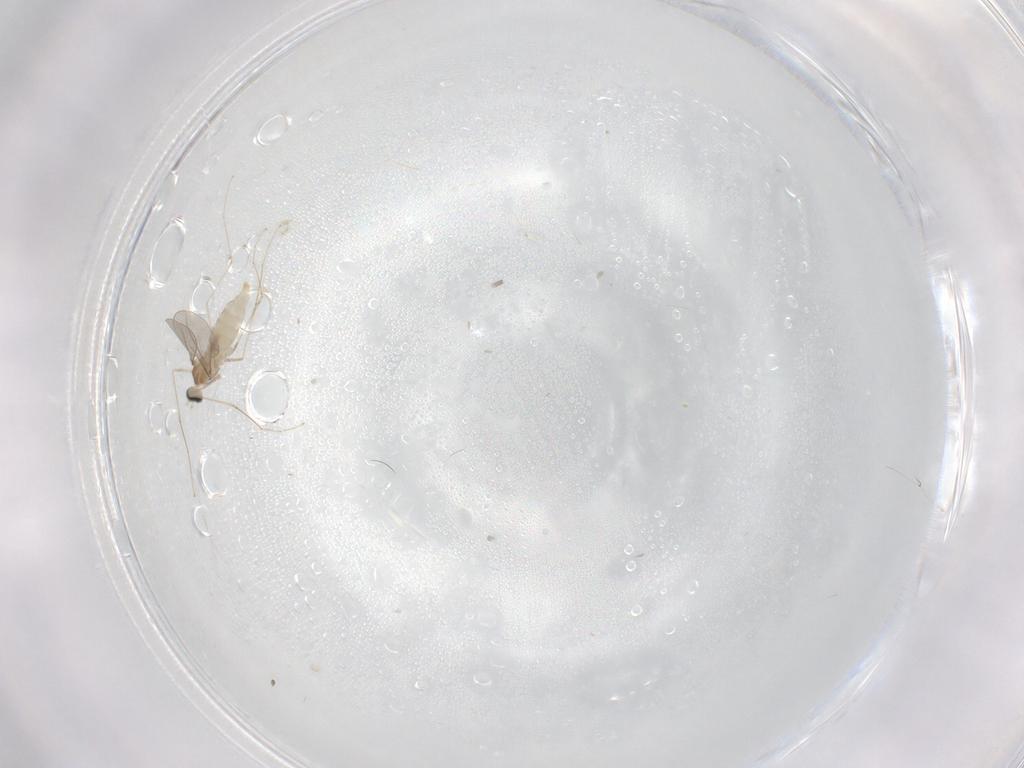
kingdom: Animalia
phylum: Arthropoda
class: Insecta
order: Diptera
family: Cecidomyiidae
